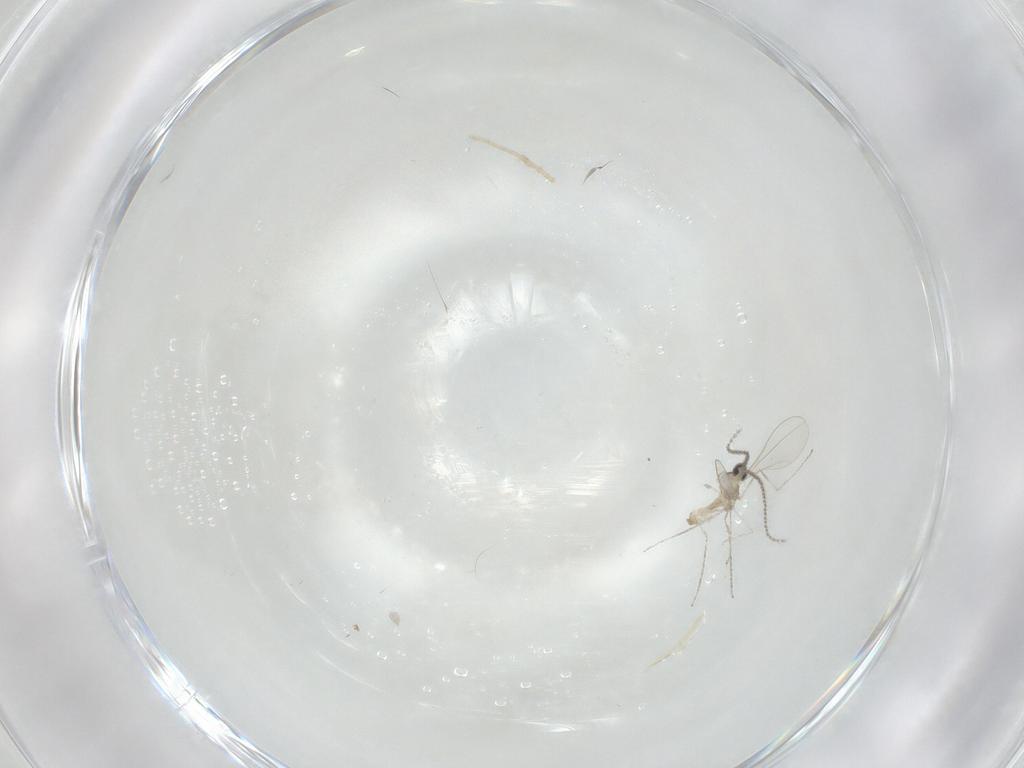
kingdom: Animalia
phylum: Arthropoda
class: Insecta
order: Diptera
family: Cecidomyiidae
